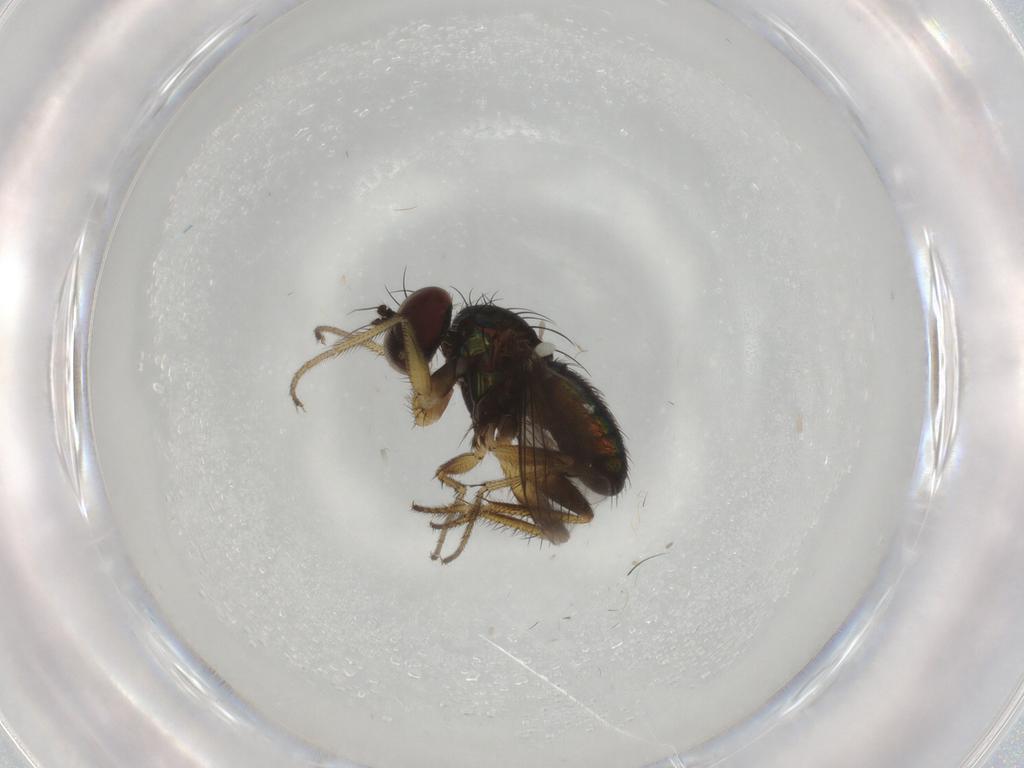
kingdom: Animalia
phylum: Arthropoda
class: Insecta
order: Diptera
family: Dolichopodidae
